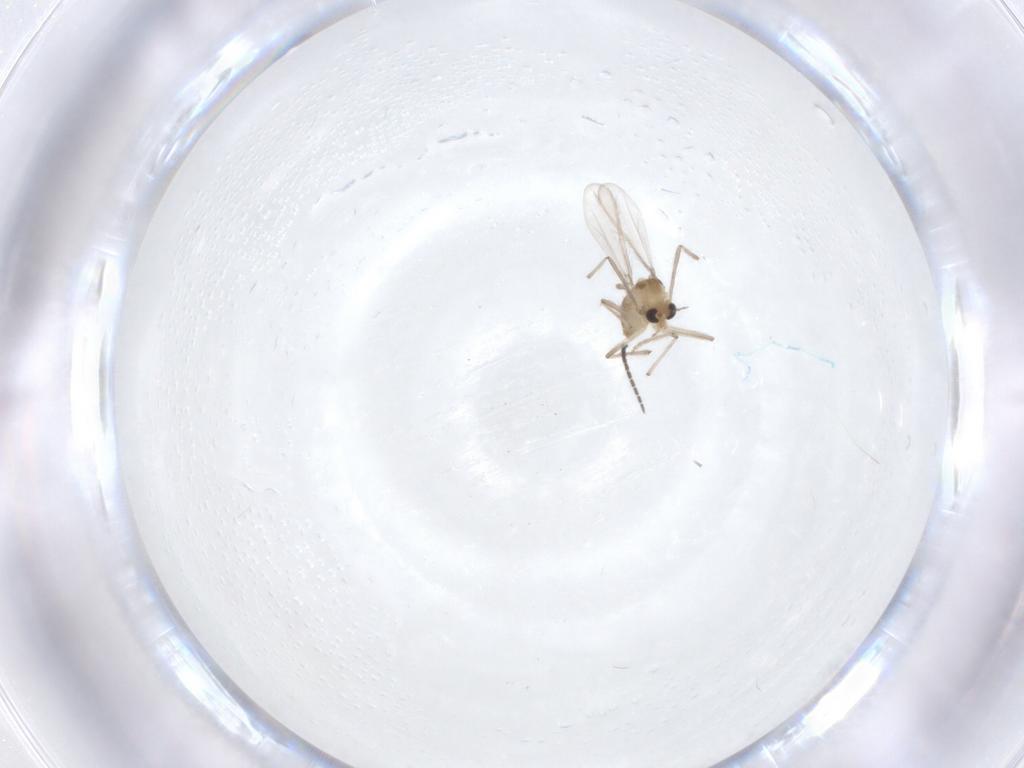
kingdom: Animalia
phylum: Arthropoda
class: Insecta
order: Diptera
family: Chironomidae
